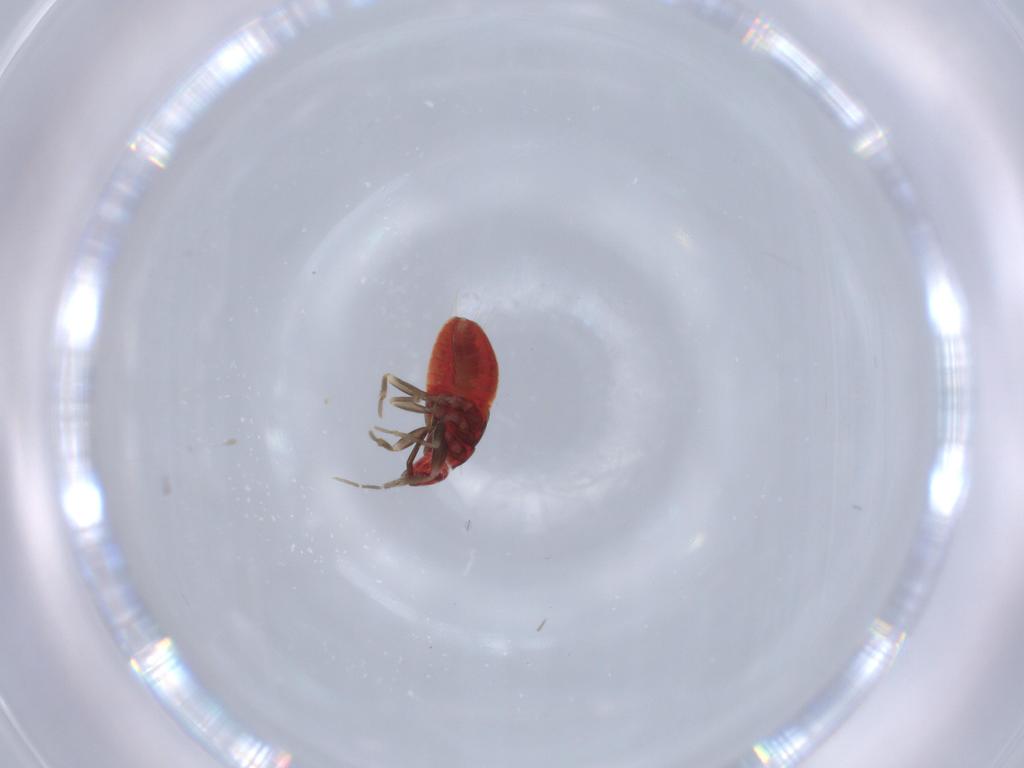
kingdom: Animalia
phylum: Arthropoda
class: Insecta
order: Hemiptera
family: Anthocoridae
